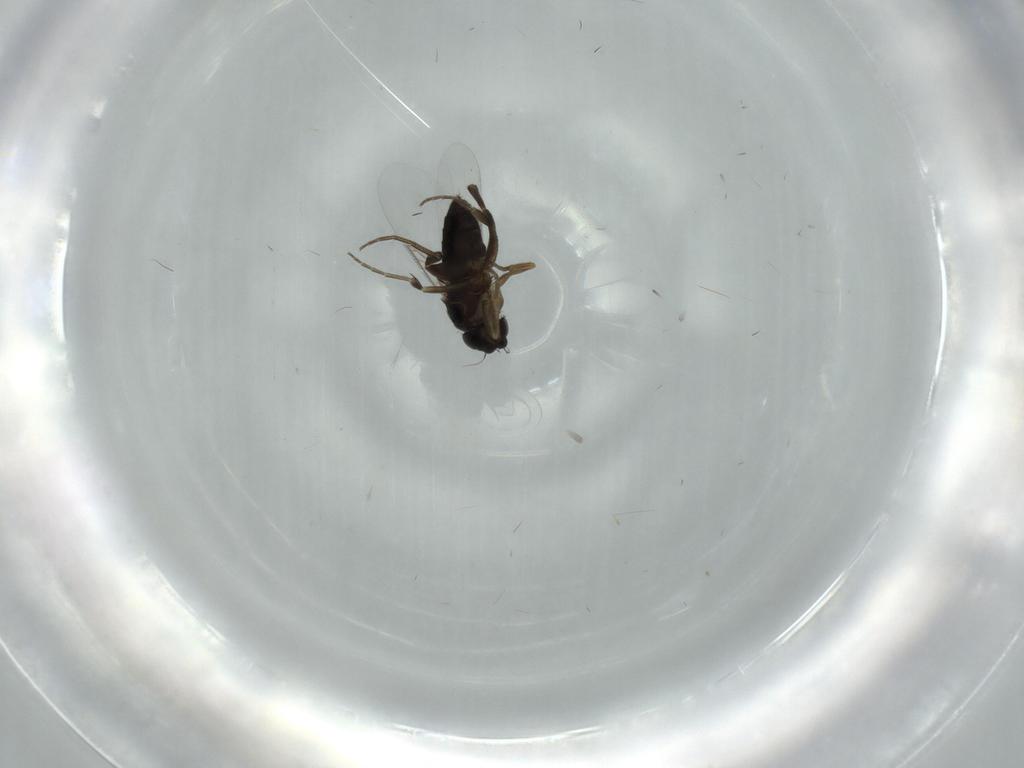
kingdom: Animalia
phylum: Arthropoda
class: Insecta
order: Diptera
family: Phoridae
